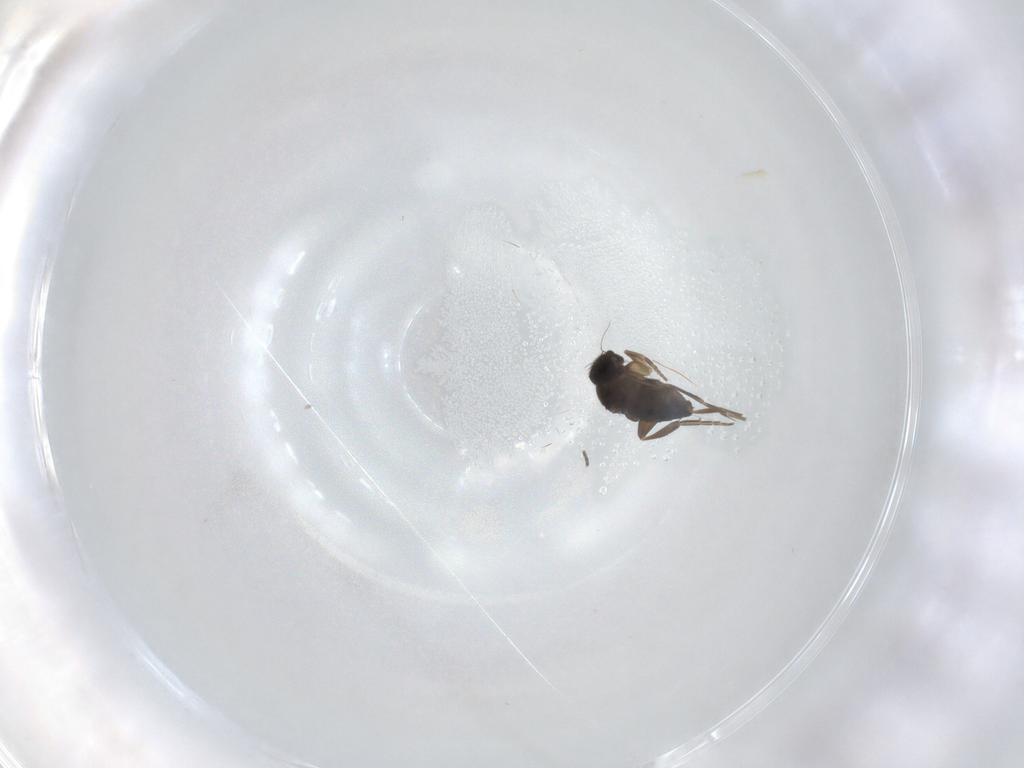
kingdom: Animalia
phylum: Arthropoda
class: Insecta
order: Diptera
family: Phoridae
